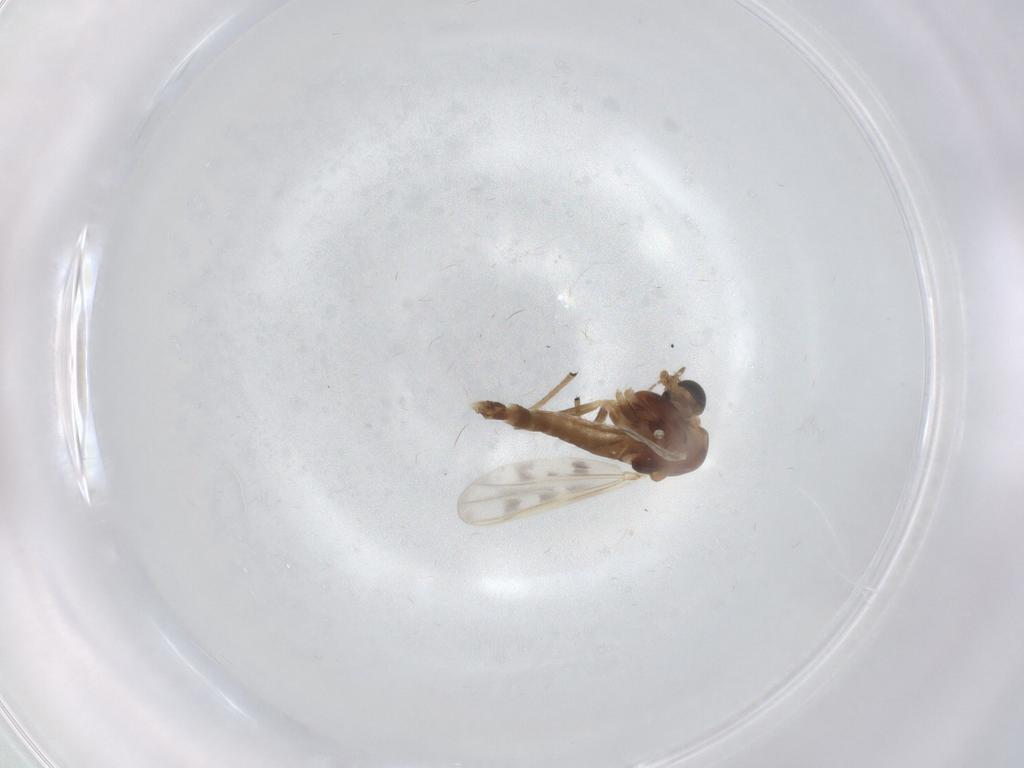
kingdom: Animalia
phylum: Arthropoda
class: Insecta
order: Diptera
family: Chironomidae
